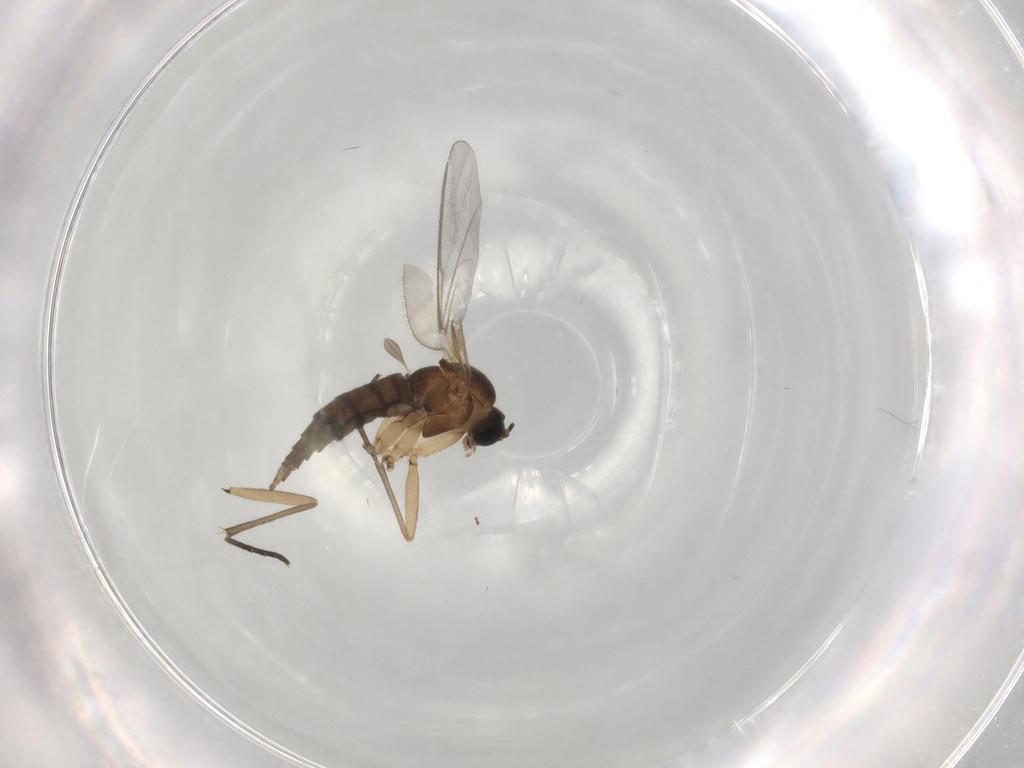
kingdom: Animalia
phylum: Arthropoda
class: Insecta
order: Diptera
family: Sciaridae
